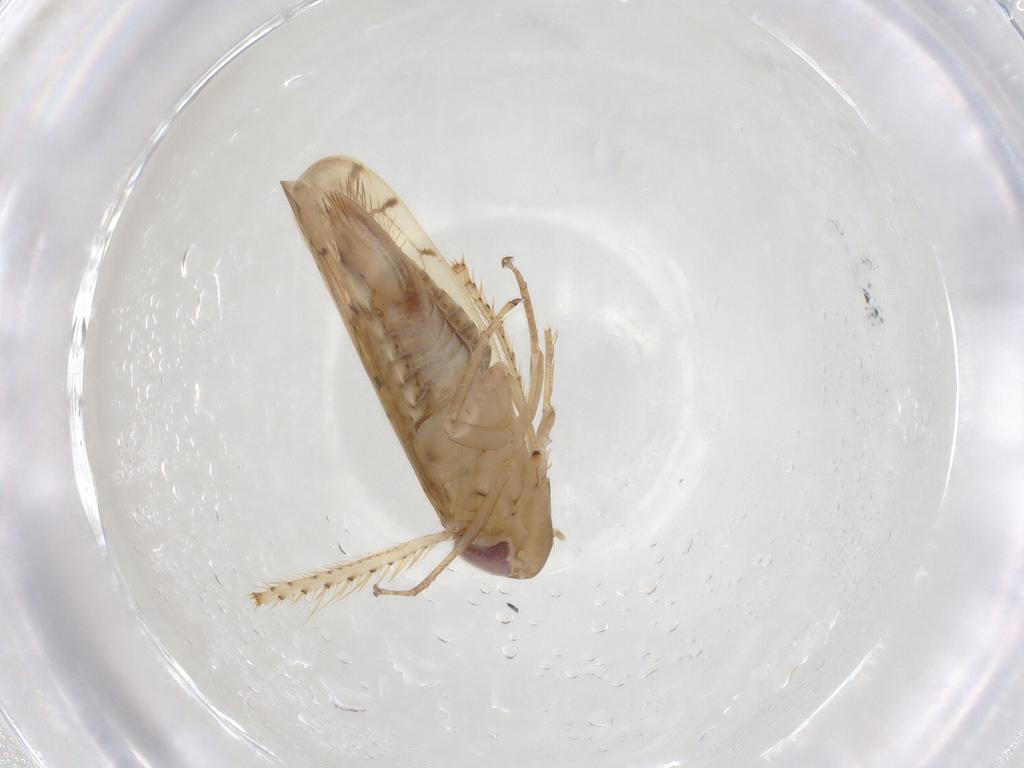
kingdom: Animalia
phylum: Arthropoda
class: Insecta
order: Hemiptera
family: Cicadellidae
